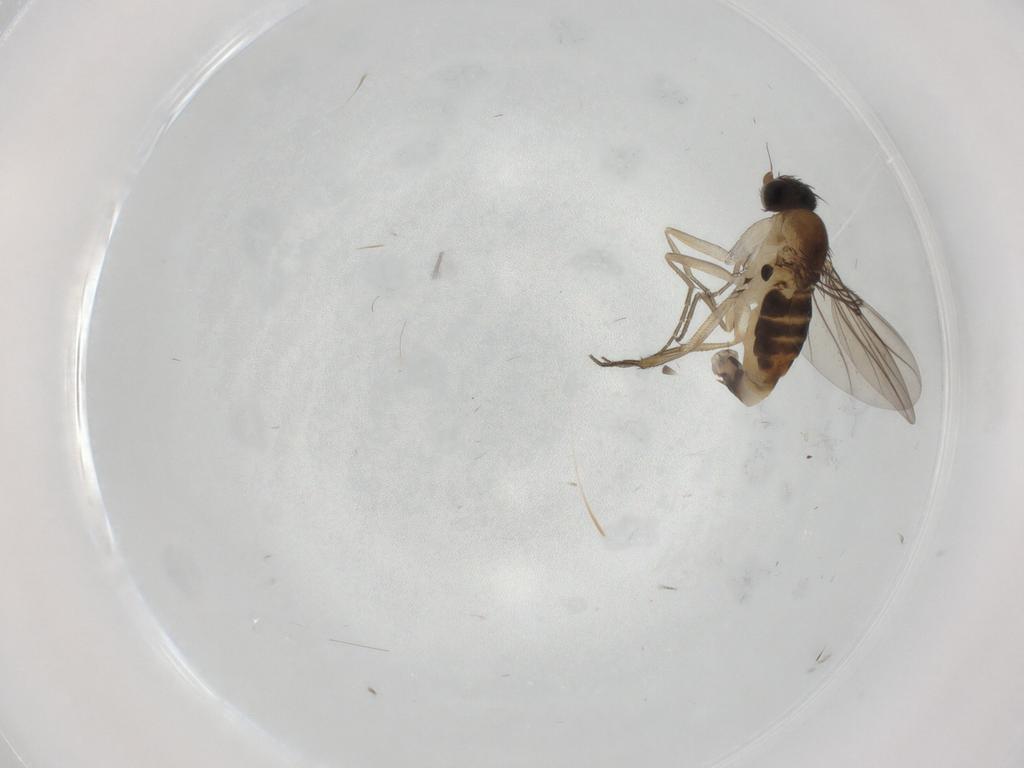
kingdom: Animalia
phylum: Arthropoda
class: Insecta
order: Diptera
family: Phoridae
